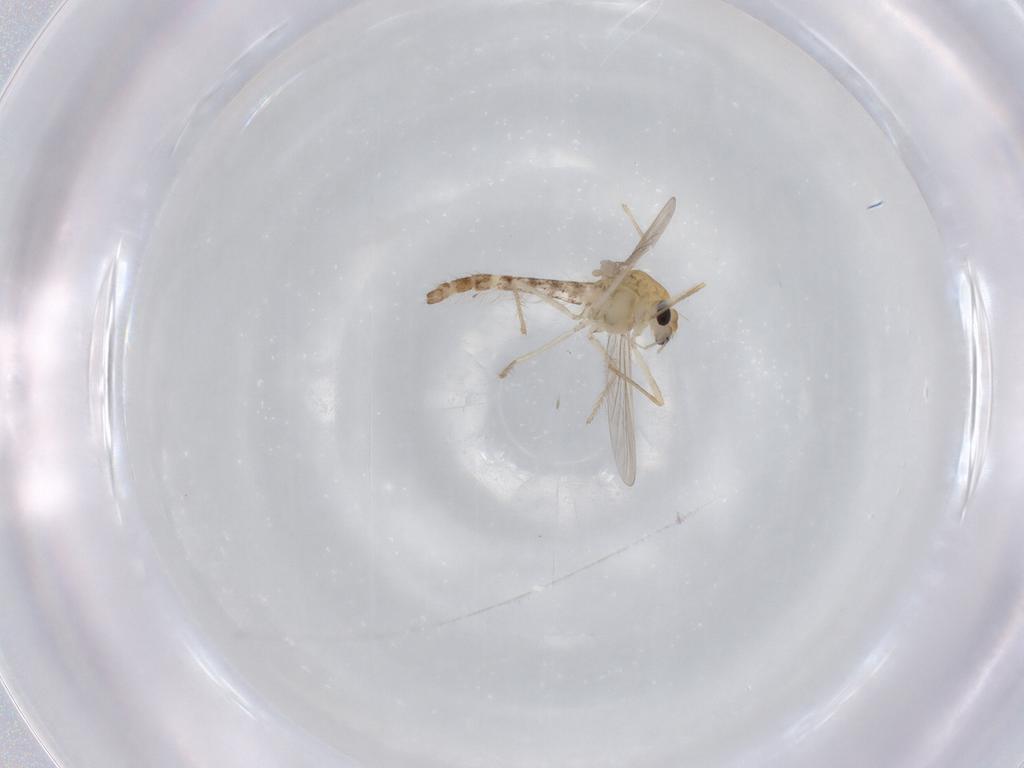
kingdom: Animalia
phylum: Arthropoda
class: Insecta
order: Diptera
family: Chironomidae
